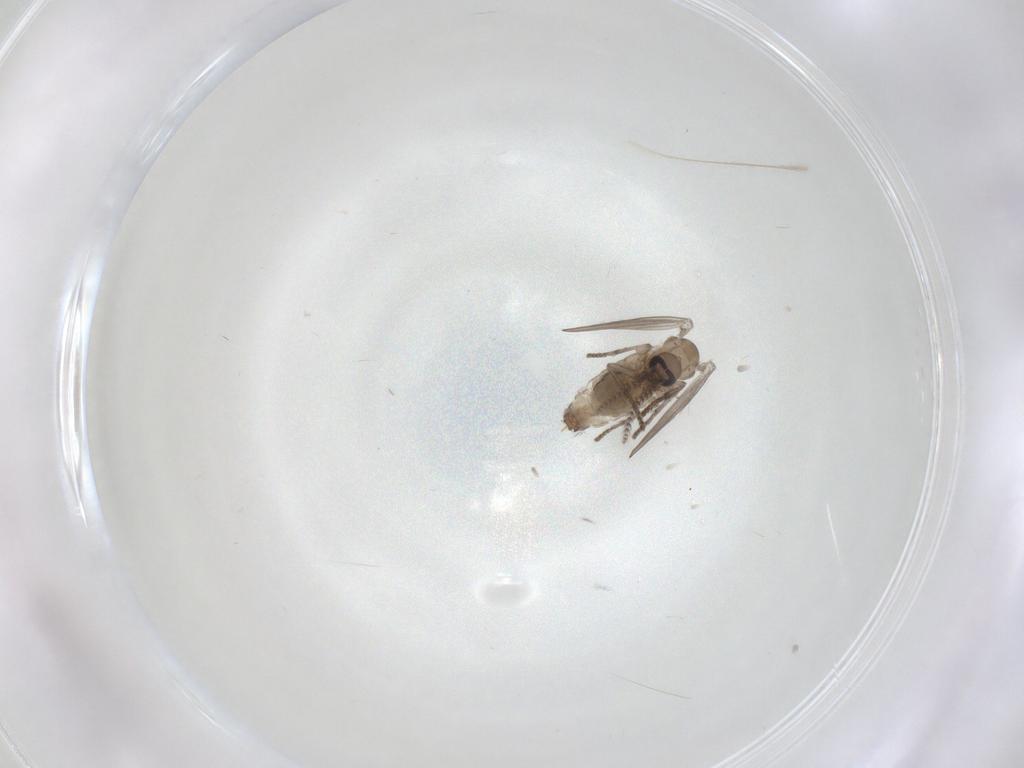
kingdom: Animalia
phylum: Arthropoda
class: Insecta
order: Diptera
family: Psychodidae
